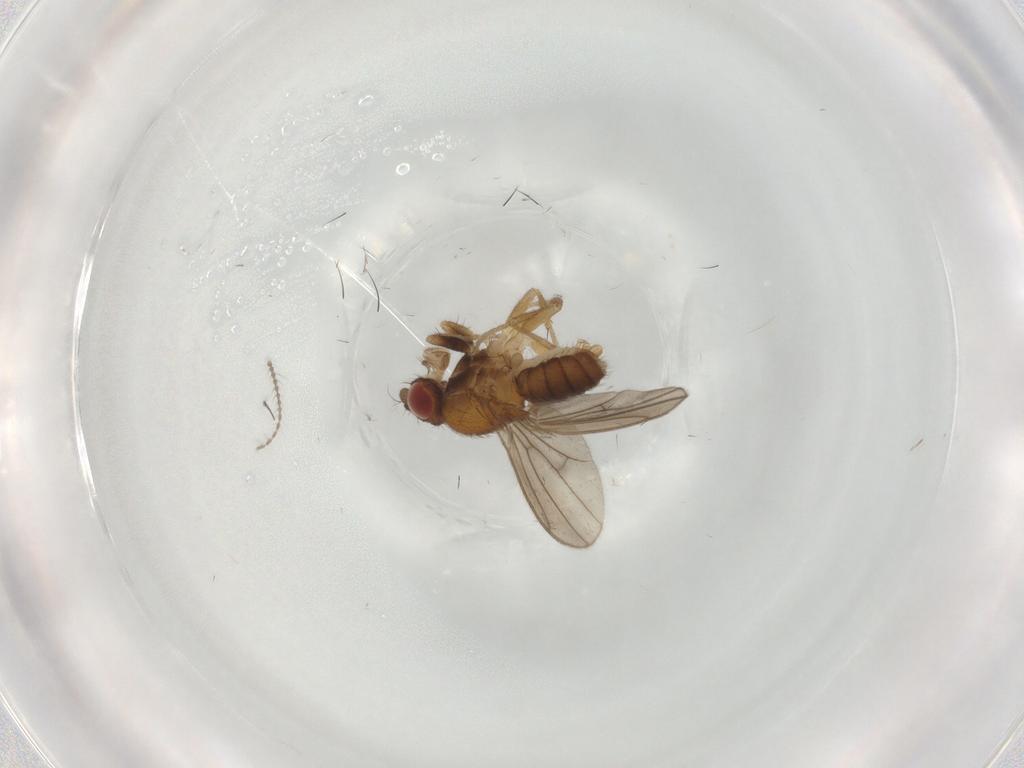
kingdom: Animalia
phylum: Arthropoda
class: Insecta
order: Diptera
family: Drosophilidae
